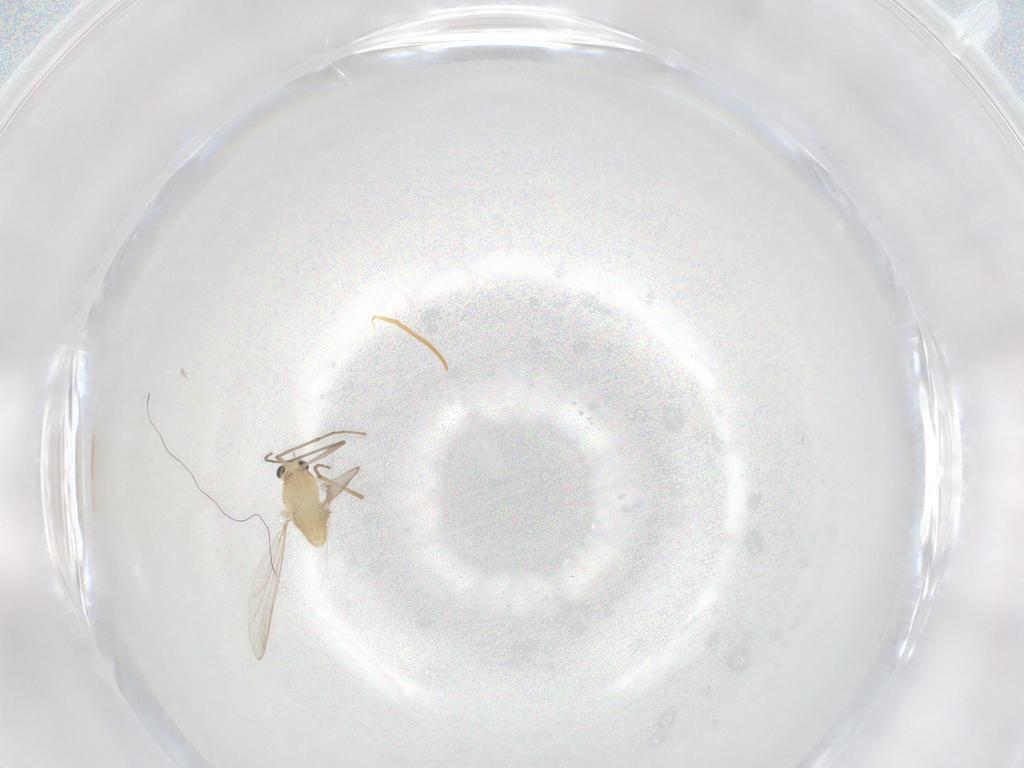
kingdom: Animalia
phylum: Arthropoda
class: Insecta
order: Diptera
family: Cecidomyiidae
